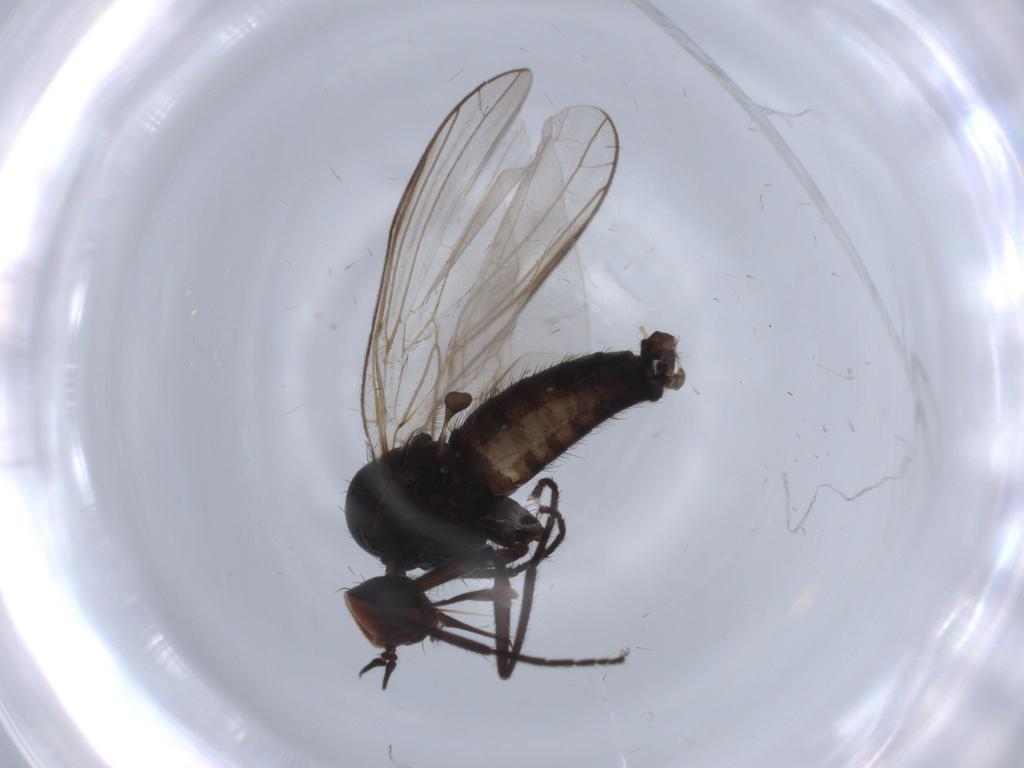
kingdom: Animalia
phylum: Arthropoda
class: Insecta
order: Diptera
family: Empididae
